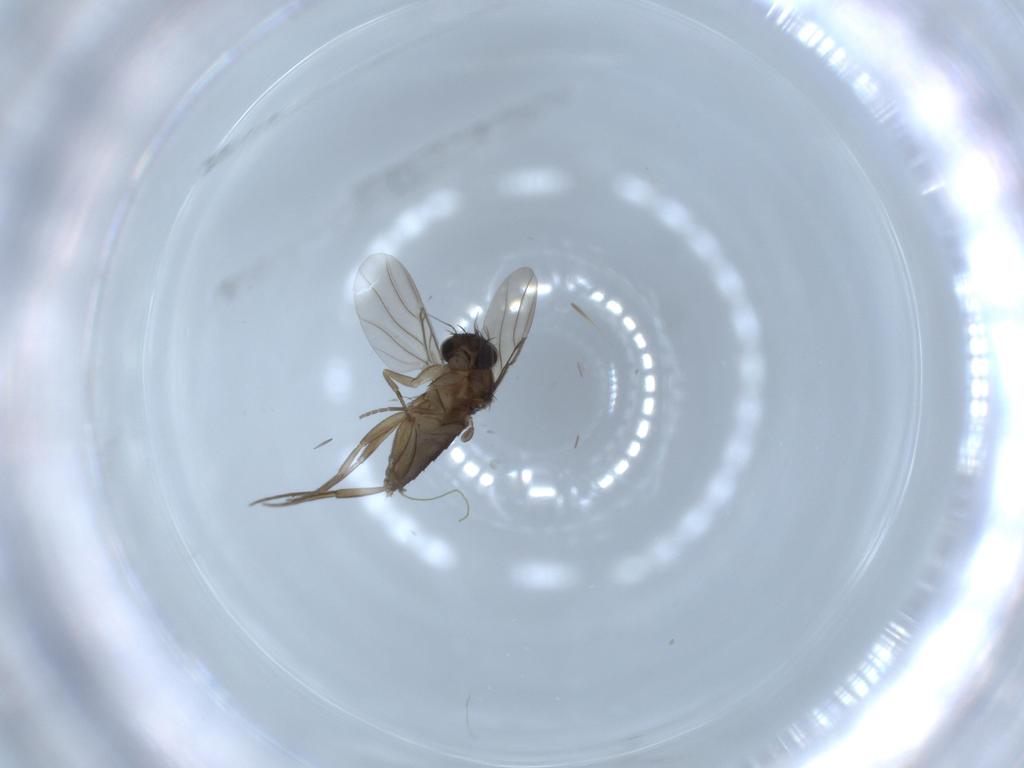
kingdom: Animalia
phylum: Arthropoda
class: Insecta
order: Diptera
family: Phoridae
